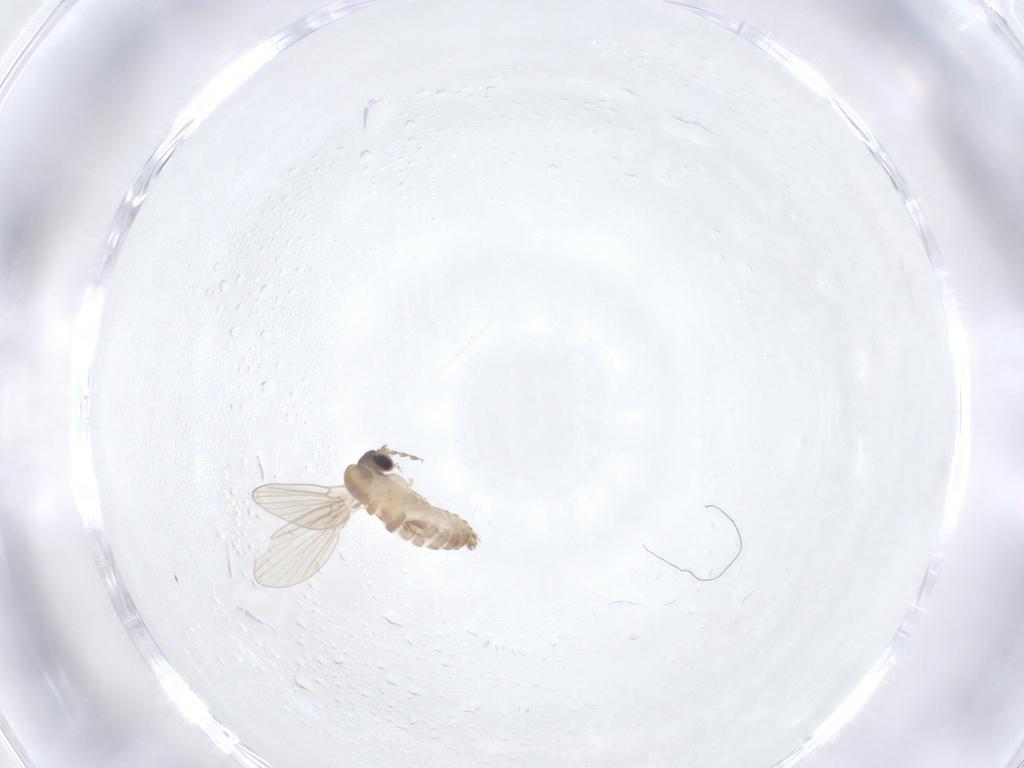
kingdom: Animalia
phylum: Arthropoda
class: Insecta
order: Diptera
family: Psychodidae
